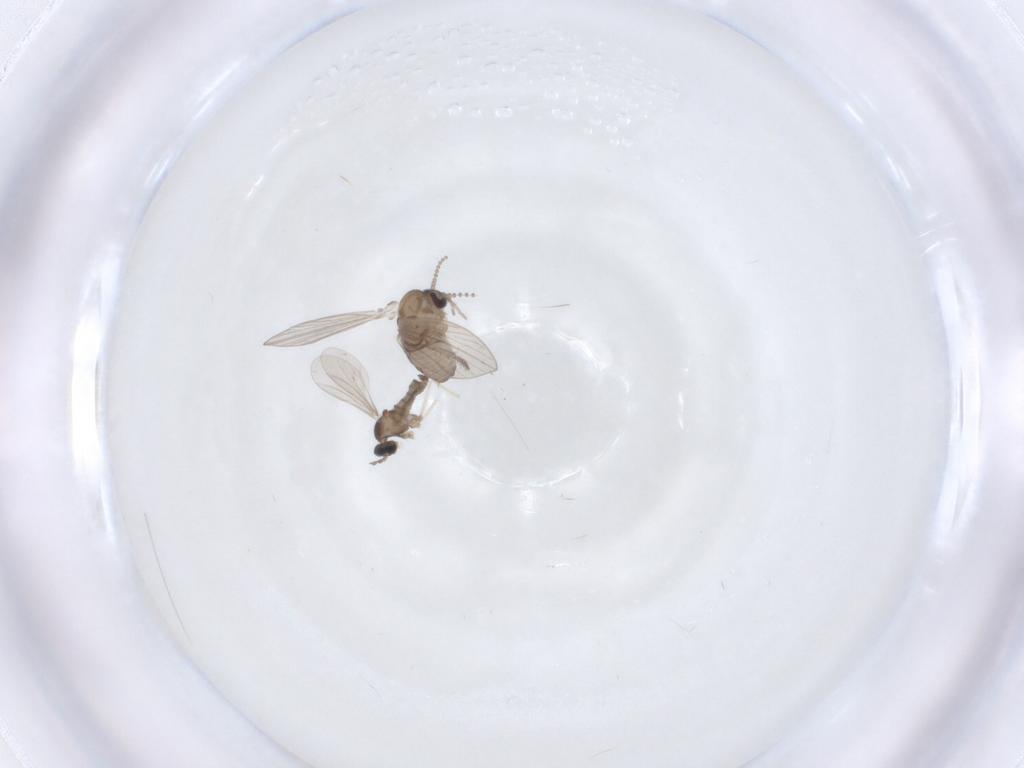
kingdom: Animalia
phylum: Arthropoda
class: Insecta
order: Diptera
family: Psychodidae
